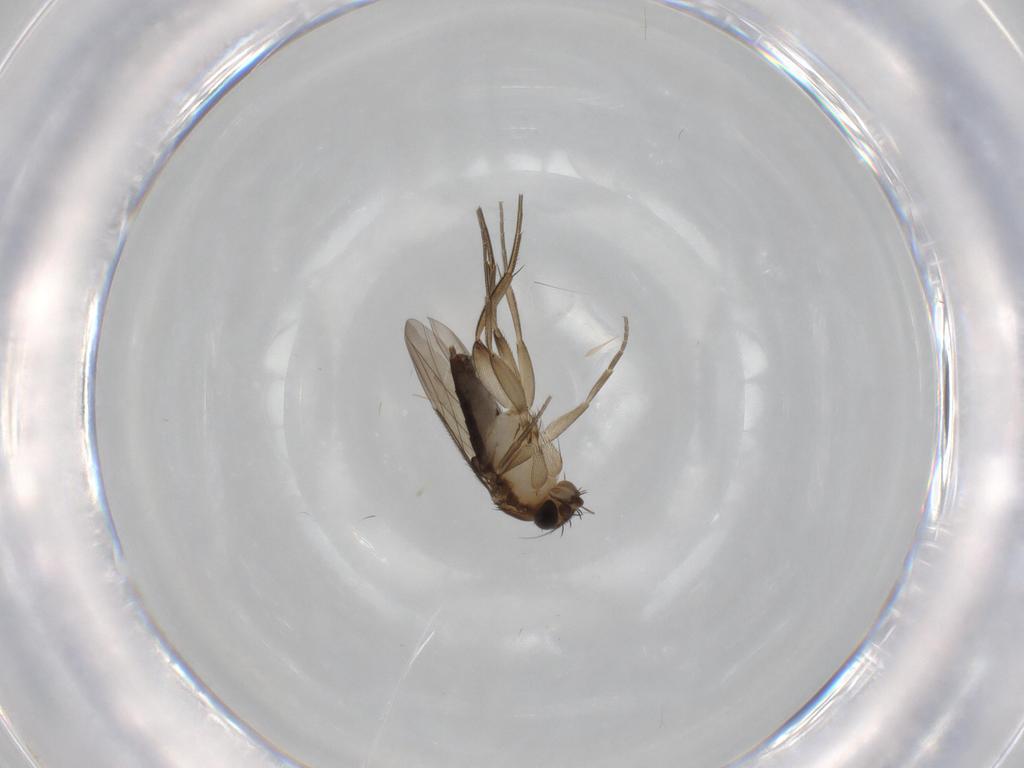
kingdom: Animalia
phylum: Arthropoda
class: Insecta
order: Diptera
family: Phoridae
